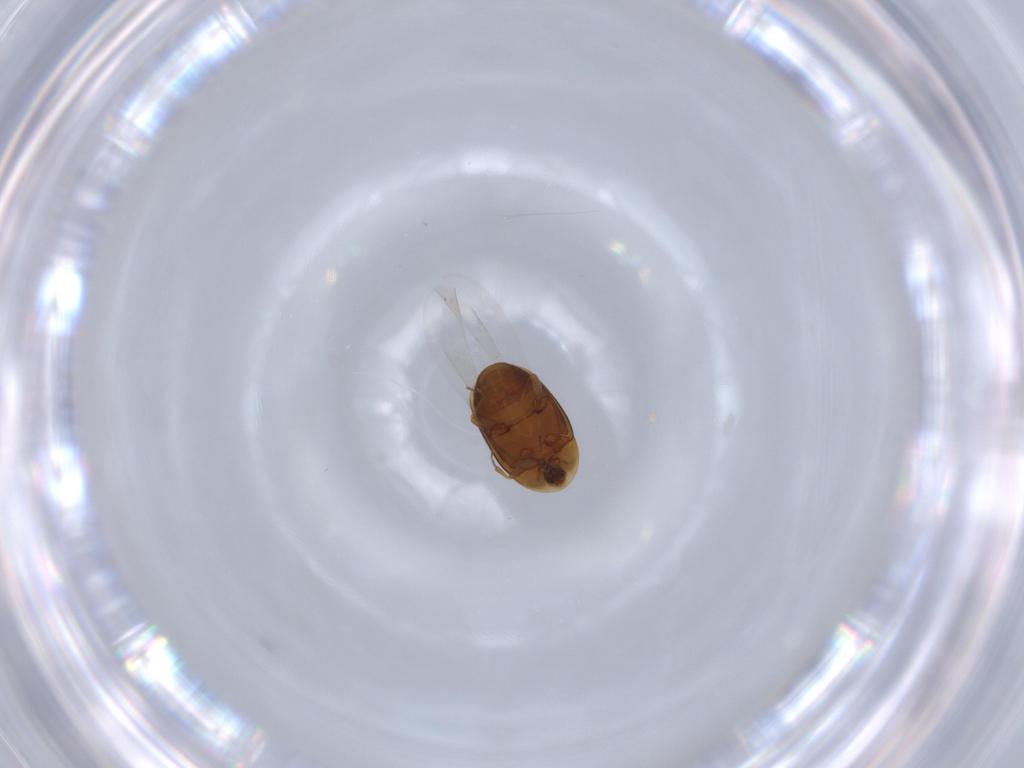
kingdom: Animalia
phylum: Arthropoda
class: Insecta
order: Coleoptera
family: Corylophidae
